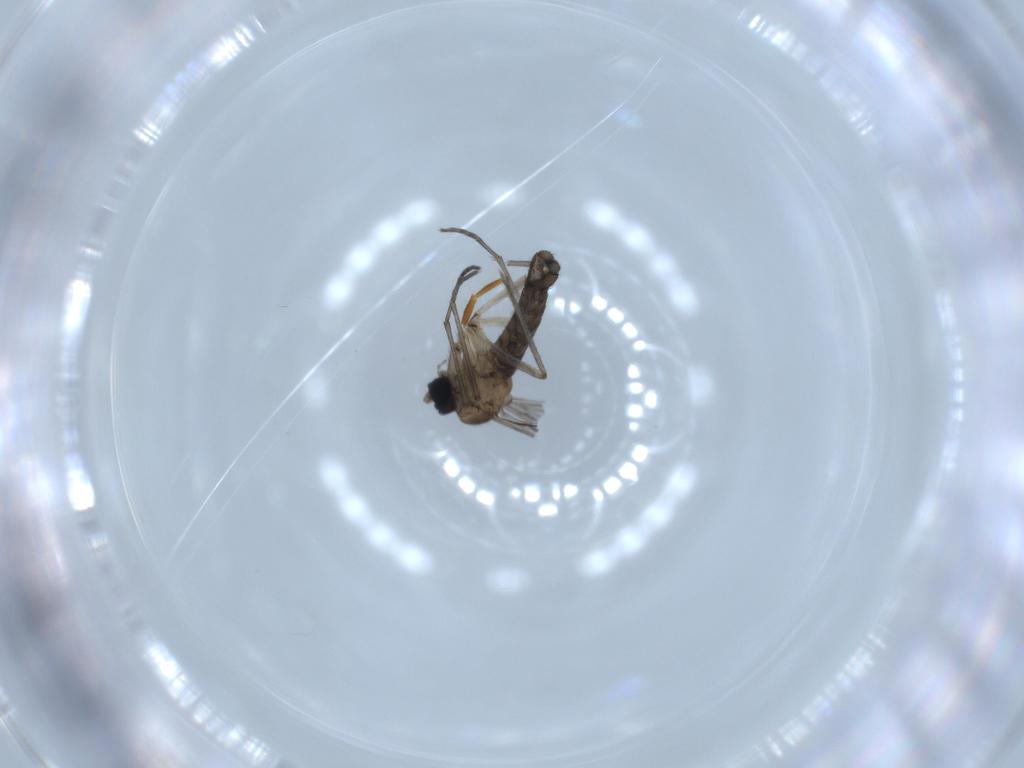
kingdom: Animalia
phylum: Arthropoda
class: Insecta
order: Diptera
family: Sciaridae
